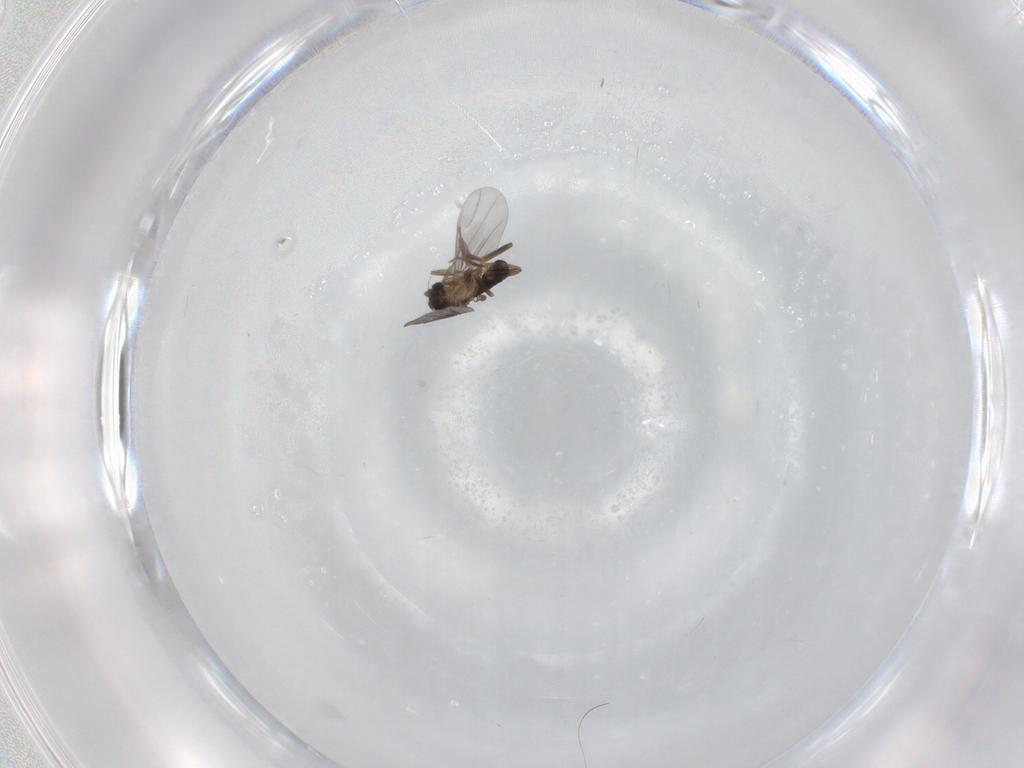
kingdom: Animalia
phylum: Arthropoda
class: Insecta
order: Diptera
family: Phoridae
